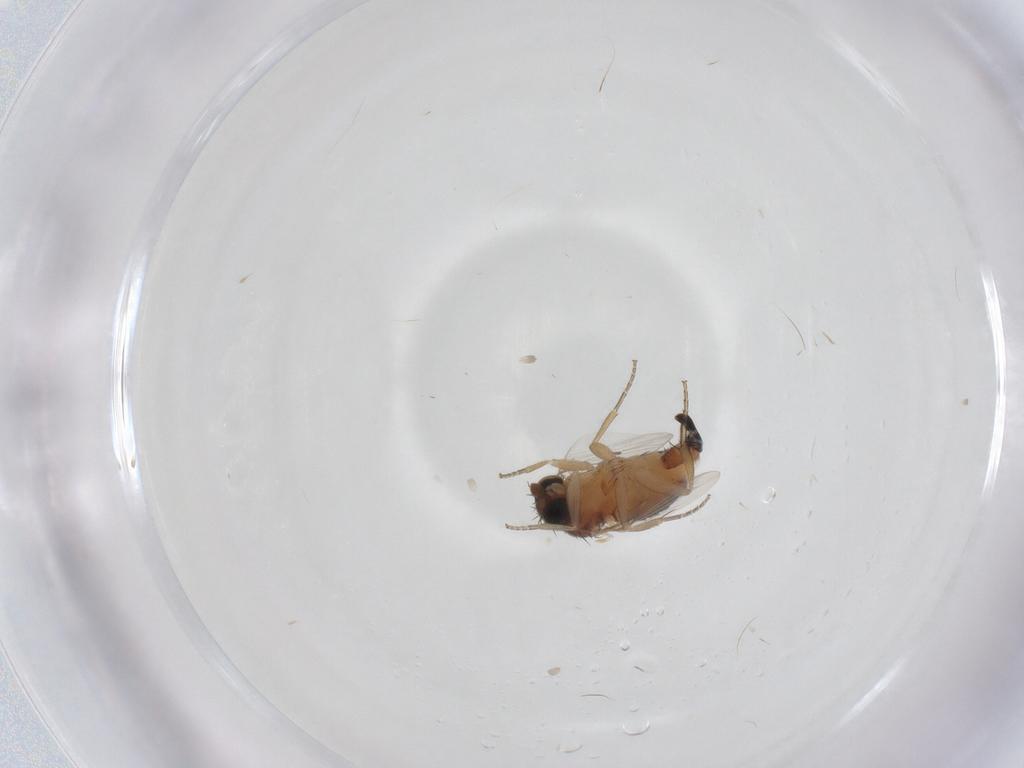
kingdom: Animalia
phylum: Arthropoda
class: Insecta
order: Diptera
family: Phoridae
